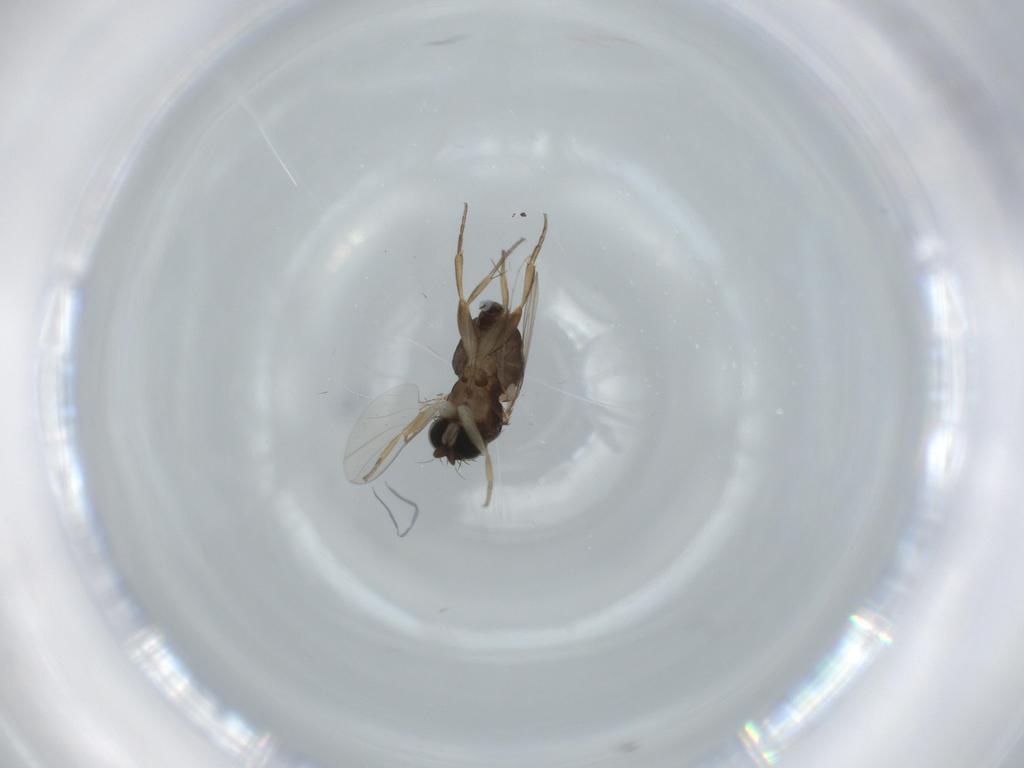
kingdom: Animalia
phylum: Arthropoda
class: Insecta
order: Diptera
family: Cecidomyiidae
